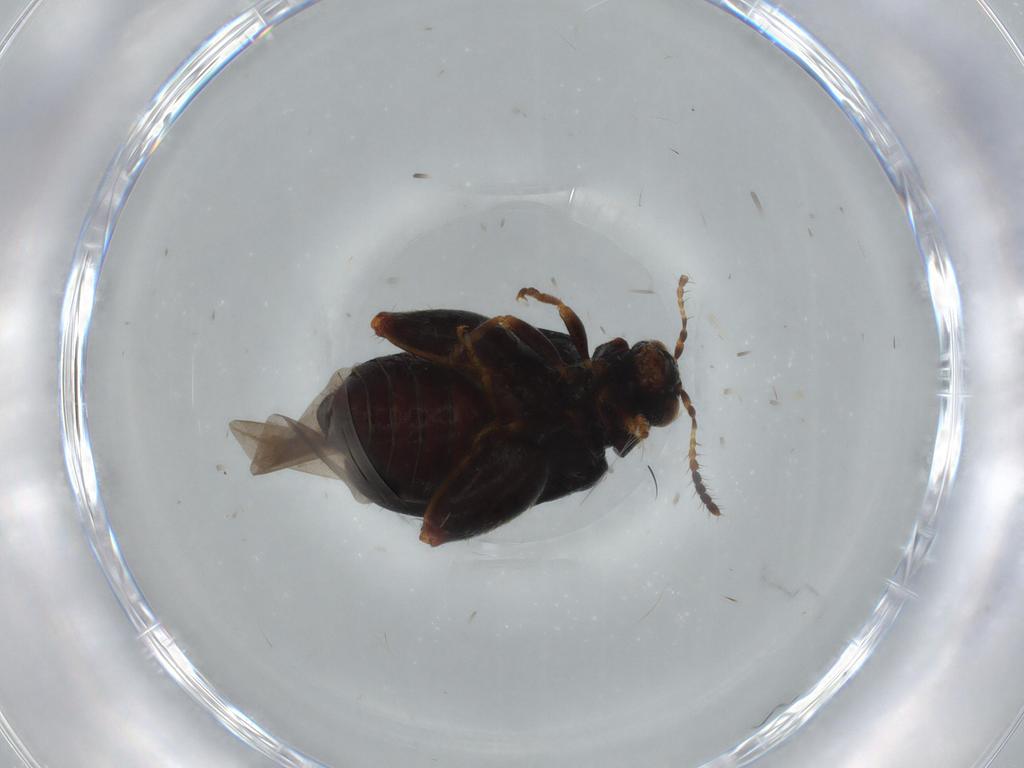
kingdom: Animalia
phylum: Arthropoda
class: Insecta
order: Coleoptera
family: Chrysomelidae
